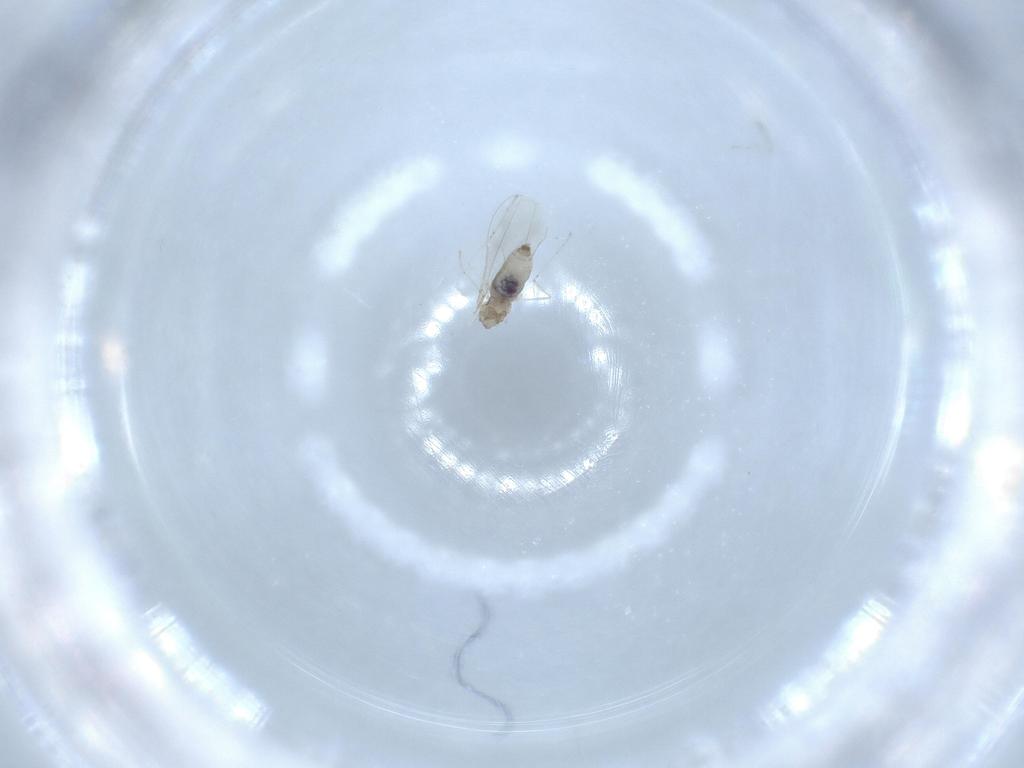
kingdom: Animalia
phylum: Arthropoda
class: Insecta
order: Diptera
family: Cecidomyiidae
